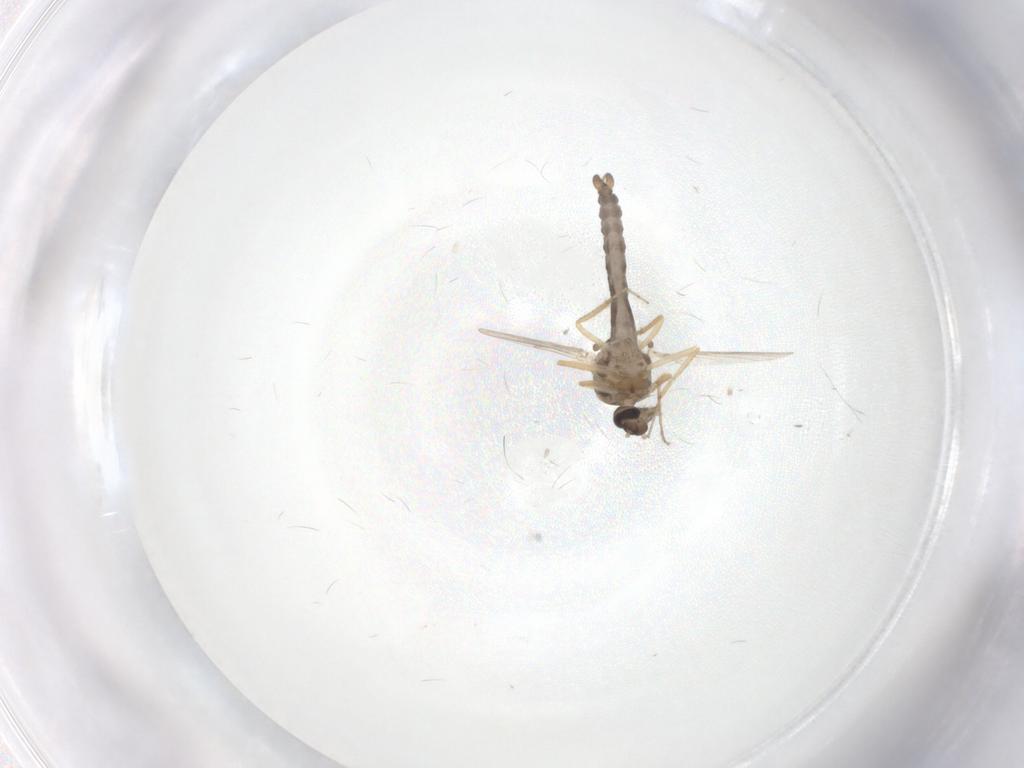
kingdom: Animalia
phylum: Arthropoda
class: Insecta
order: Diptera
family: Ceratopogonidae
